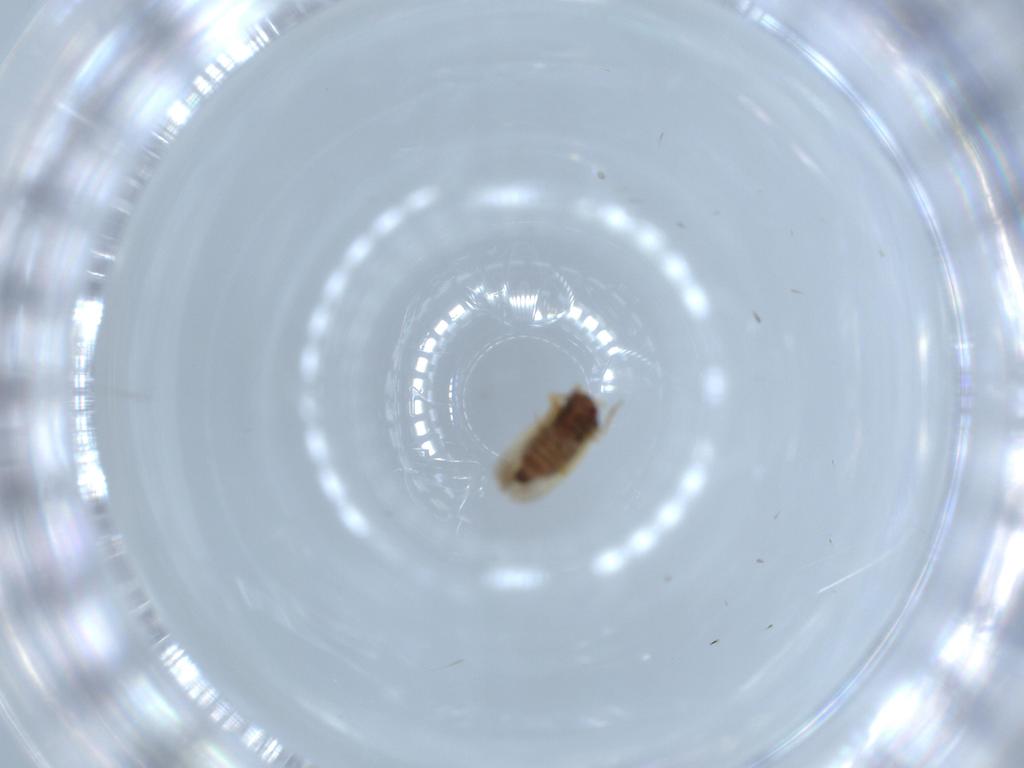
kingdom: Animalia
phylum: Arthropoda
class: Insecta
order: Hemiptera
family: Schizopteridae
